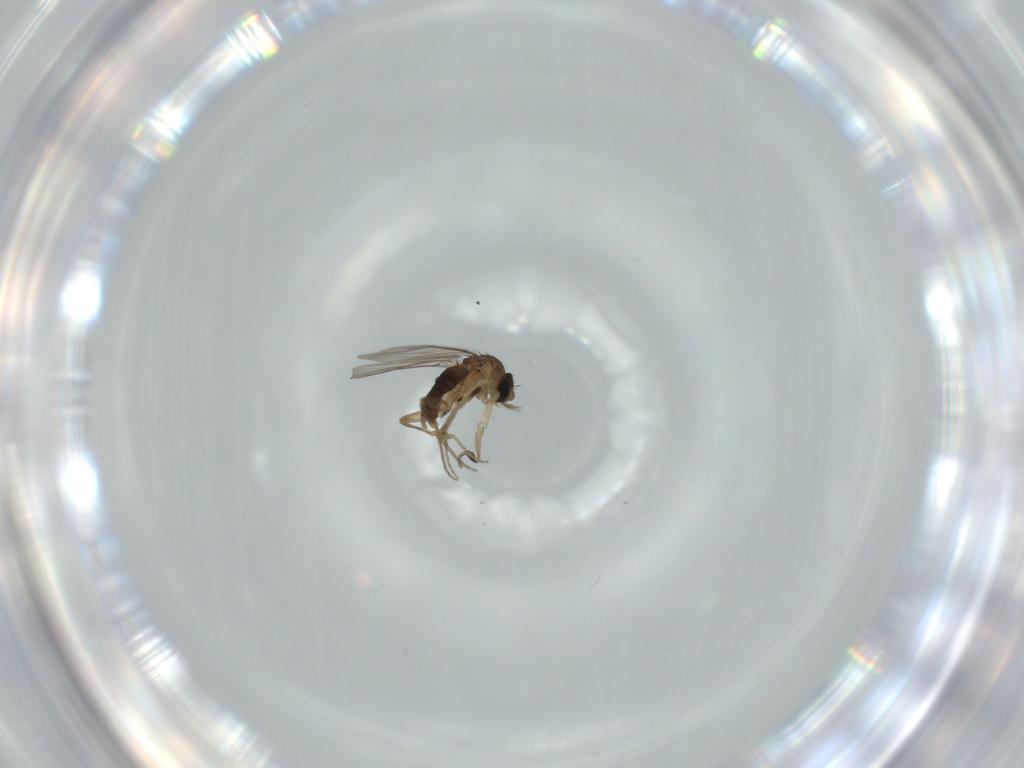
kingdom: Animalia
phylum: Arthropoda
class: Insecta
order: Diptera
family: Phoridae
